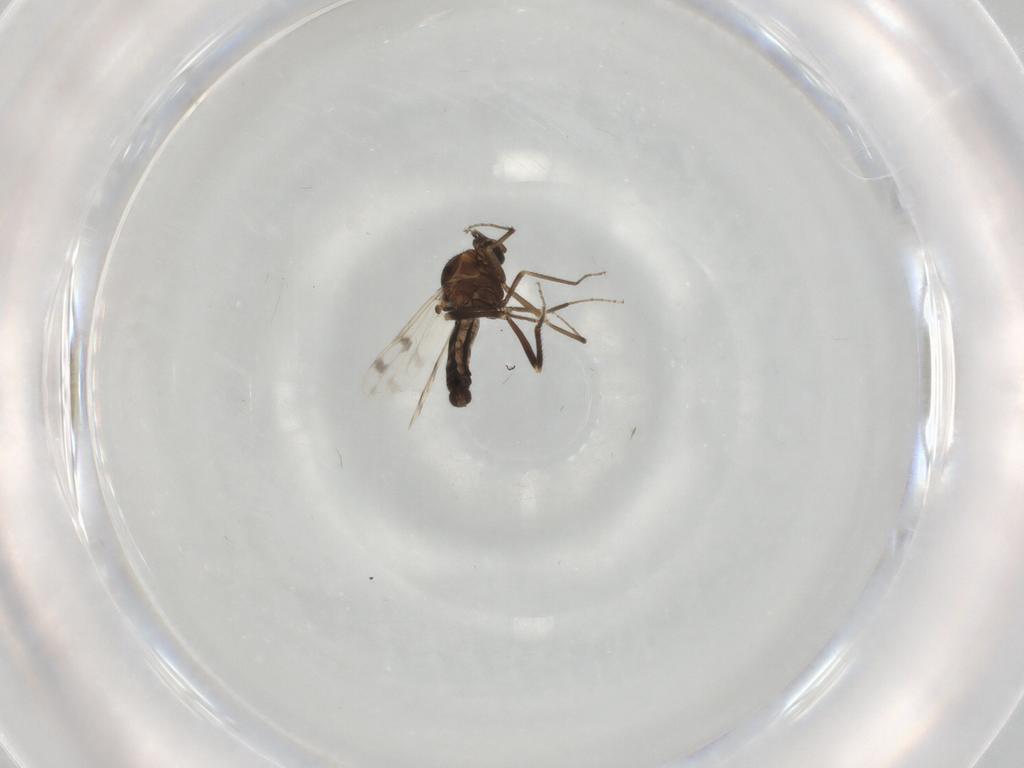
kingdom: Animalia
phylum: Arthropoda
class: Insecta
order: Diptera
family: Ceratopogonidae
